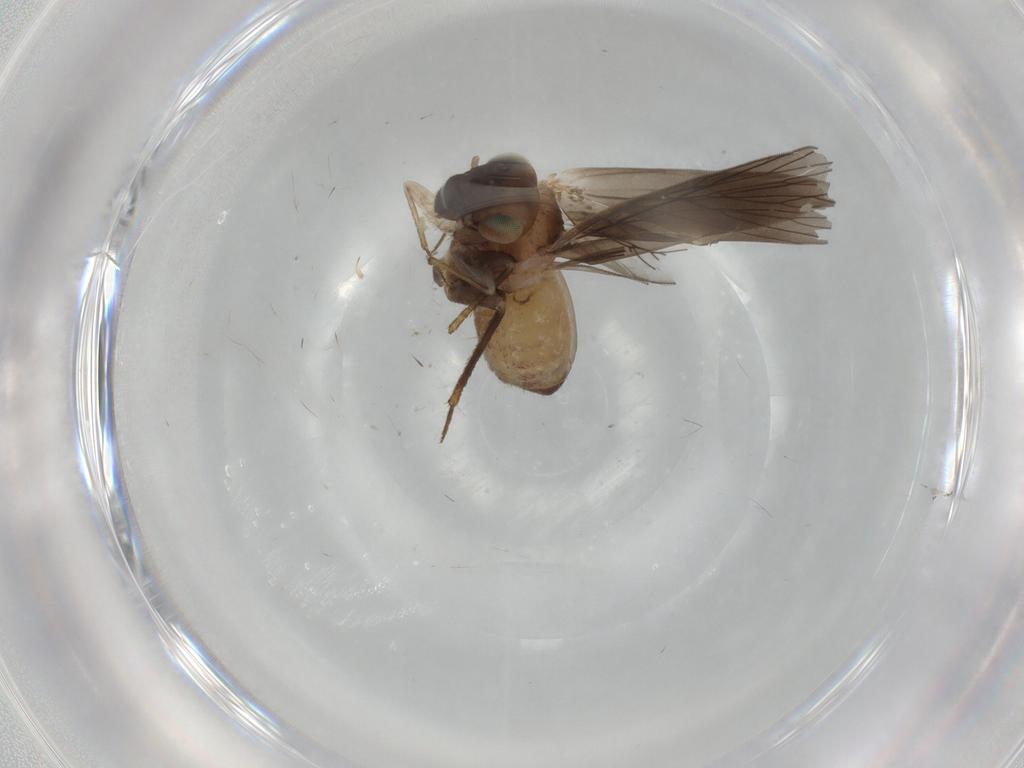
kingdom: Animalia
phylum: Arthropoda
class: Insecta
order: Psocodea
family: Lepidopsocidae
